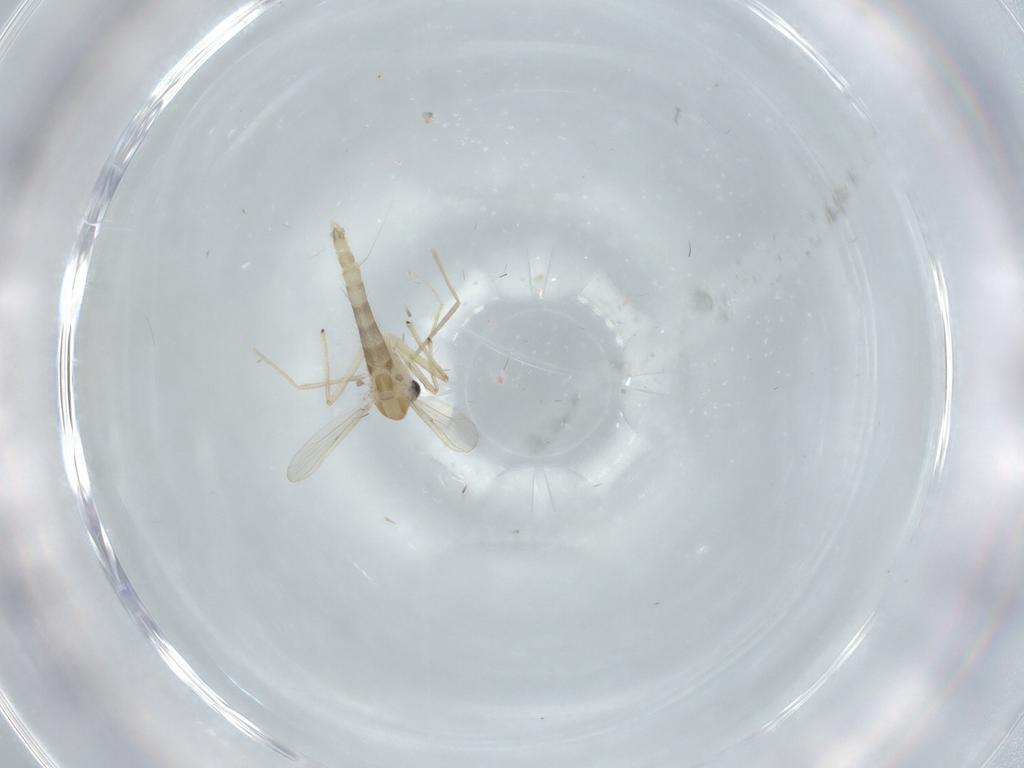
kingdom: Animalia
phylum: Arthropoda
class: Insecta
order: Diptera
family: Chironomidae
